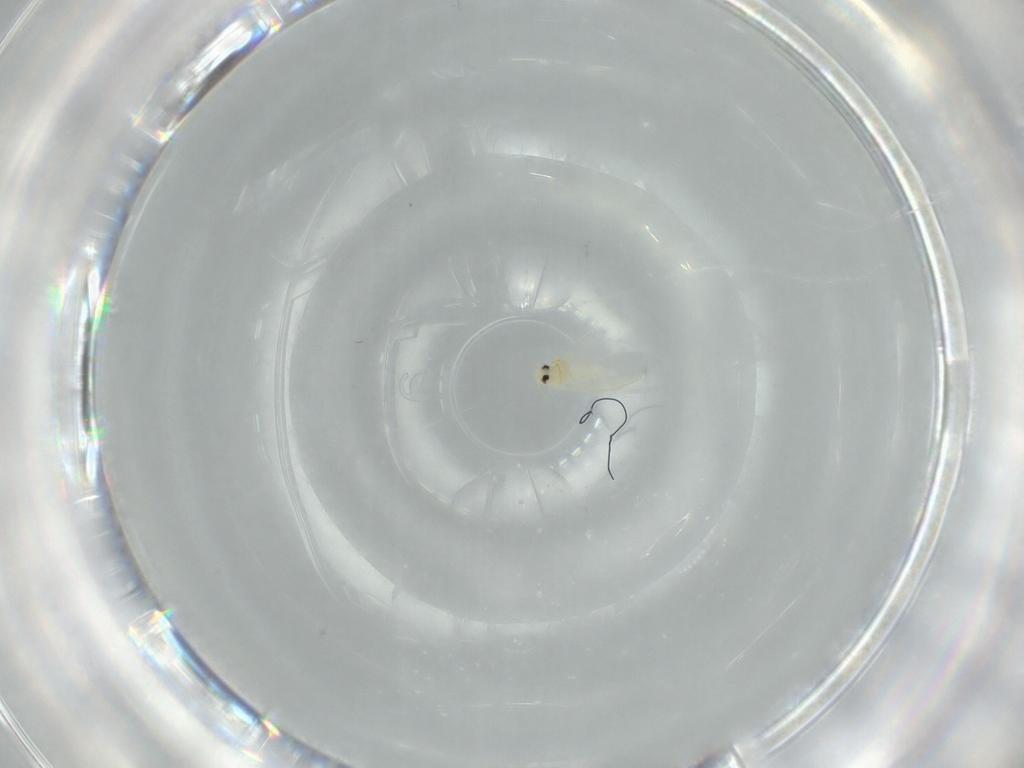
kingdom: Animalia
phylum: Arthropoda
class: Insecta
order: Hemiptera
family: Aleyrodidae
